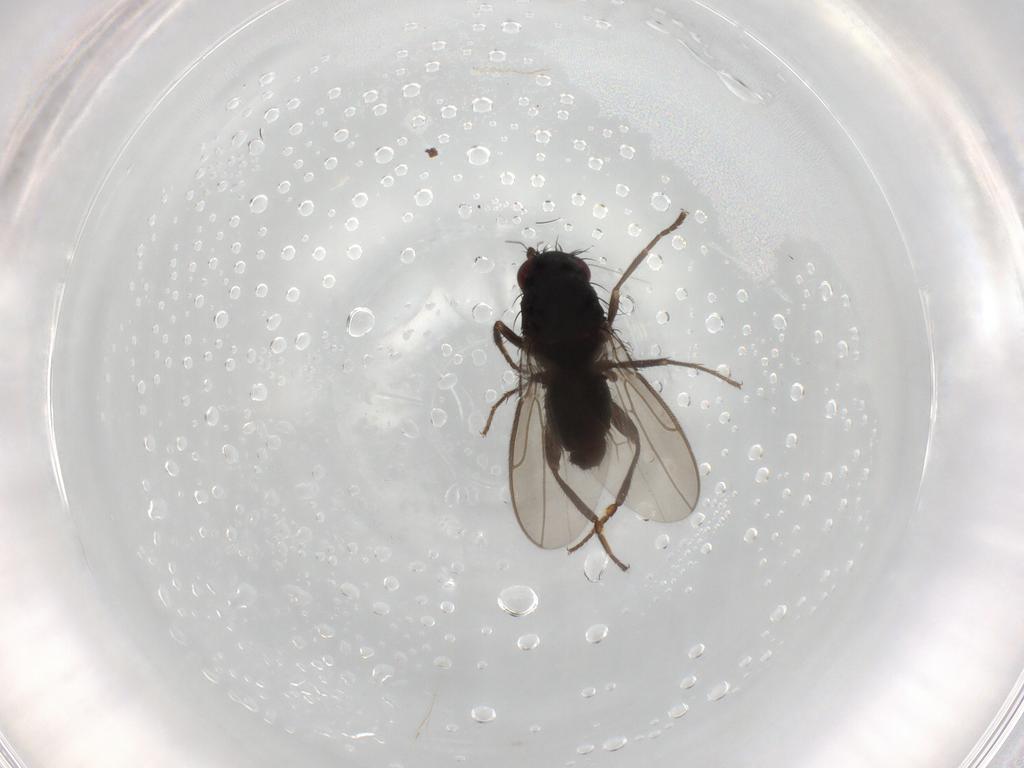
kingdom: Animalia
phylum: Arthropoda
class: Insecta
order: Diptera
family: Sphaeroceridae
